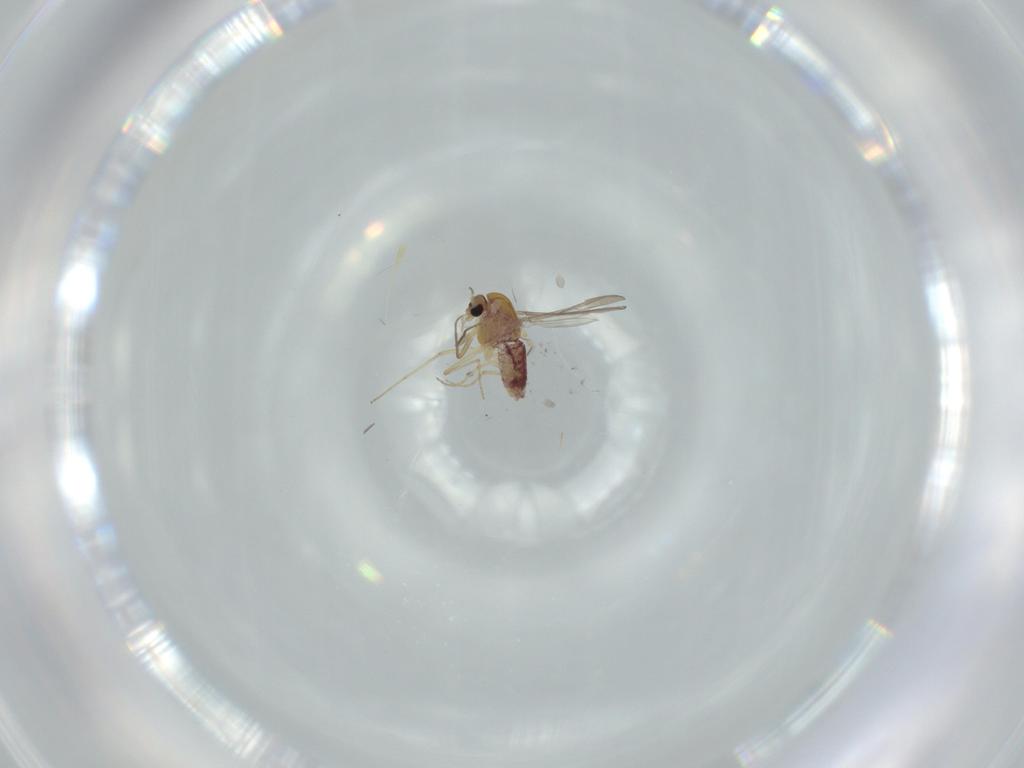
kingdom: Animalia
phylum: Arthropoda
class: Insecta
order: Diptera
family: Chironomidae
